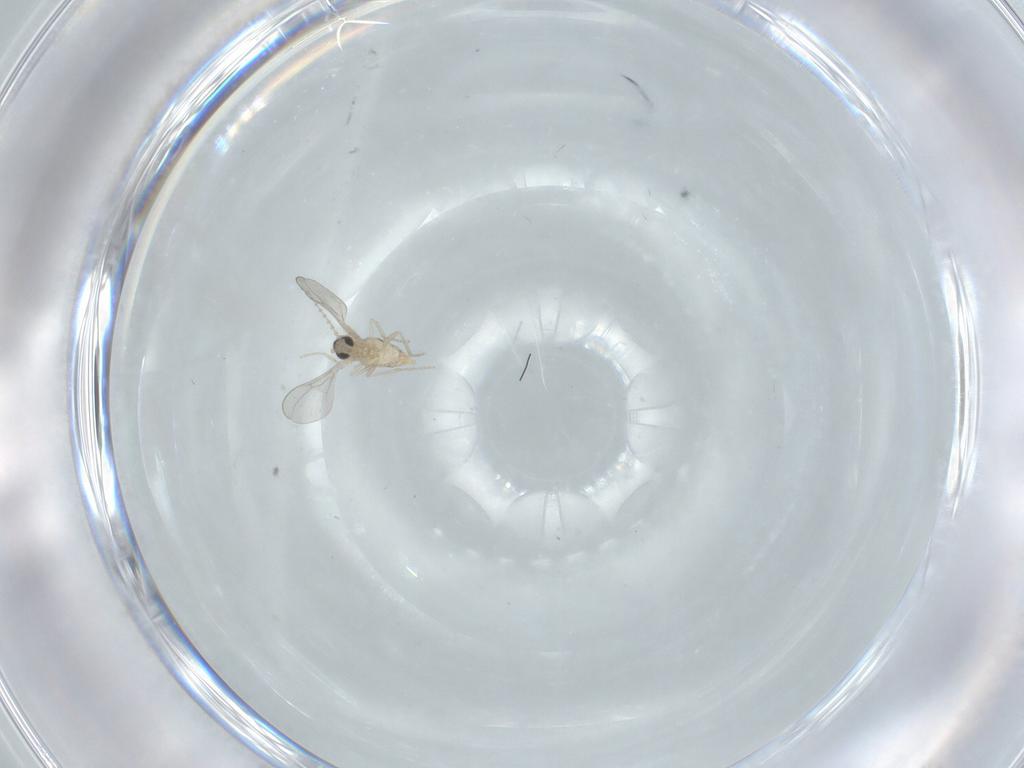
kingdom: Animalia
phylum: Arthropoda
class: Insecta
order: Diptera
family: Cecidomyiidae
